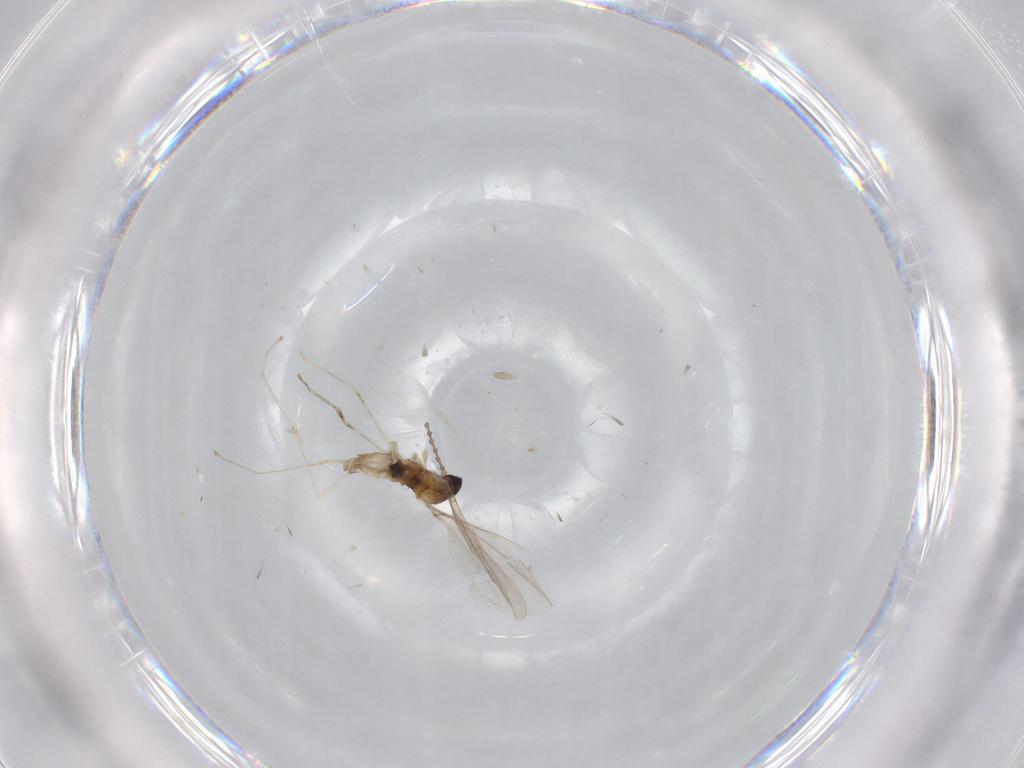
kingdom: Animalia
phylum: Arthropoda
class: Insecta
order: Diptera
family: Cecidomyiidae
